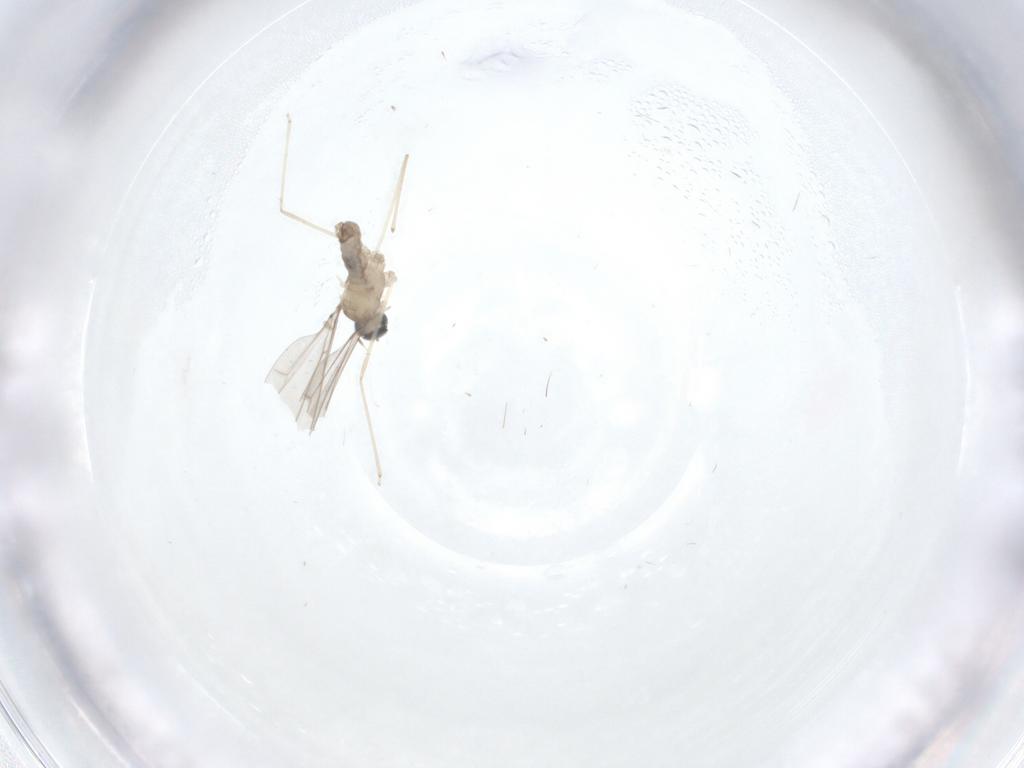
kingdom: Animalia
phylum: Arthropoda
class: Insecta
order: Diptera
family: Cecidomyiidae
